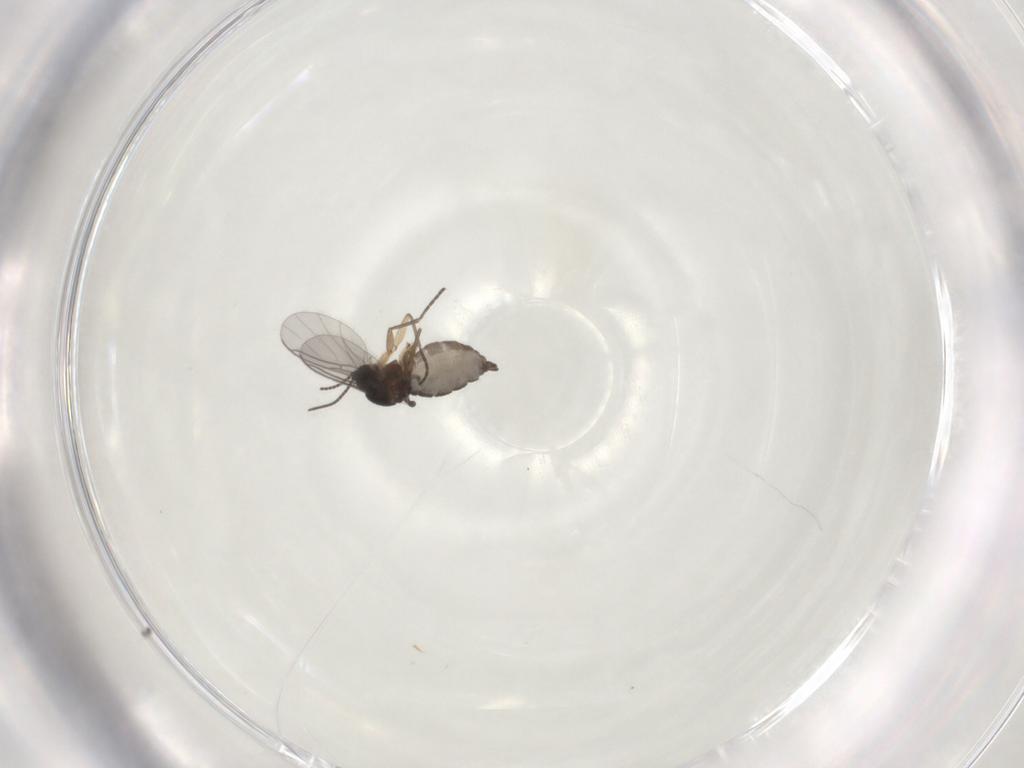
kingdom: Animalia
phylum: Arthropoda
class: Insecta
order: Diptera
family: Sciaridae
